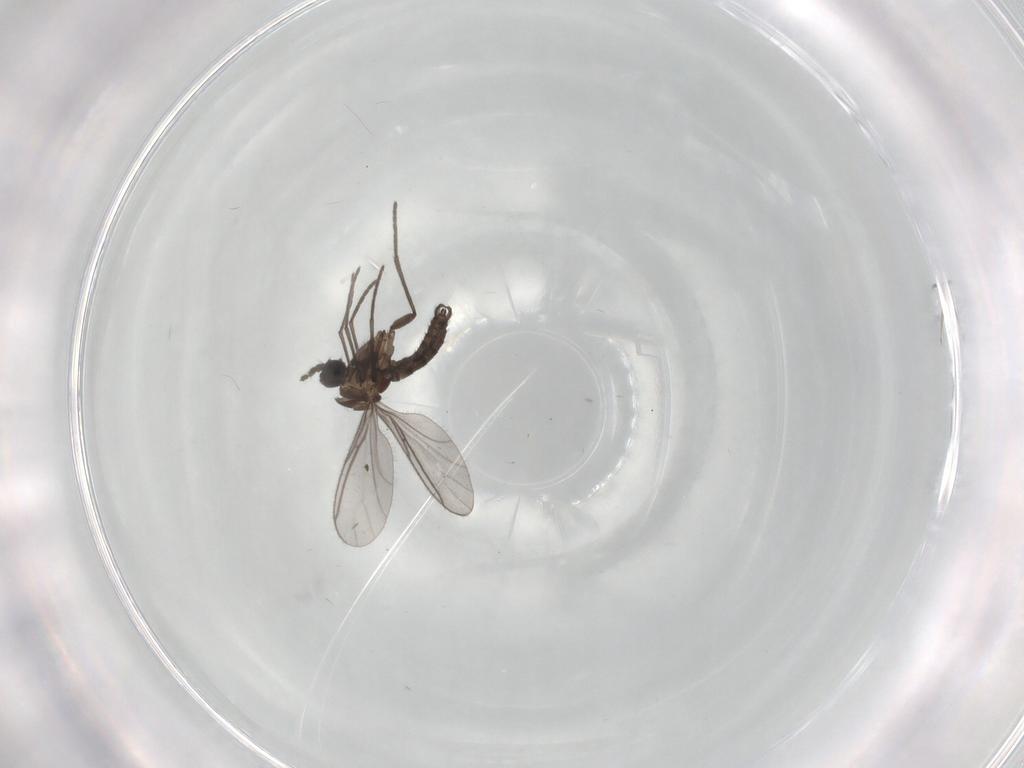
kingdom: Animalia
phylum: Arthropoda
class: Insecta
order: Diptera
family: Sciaridae
